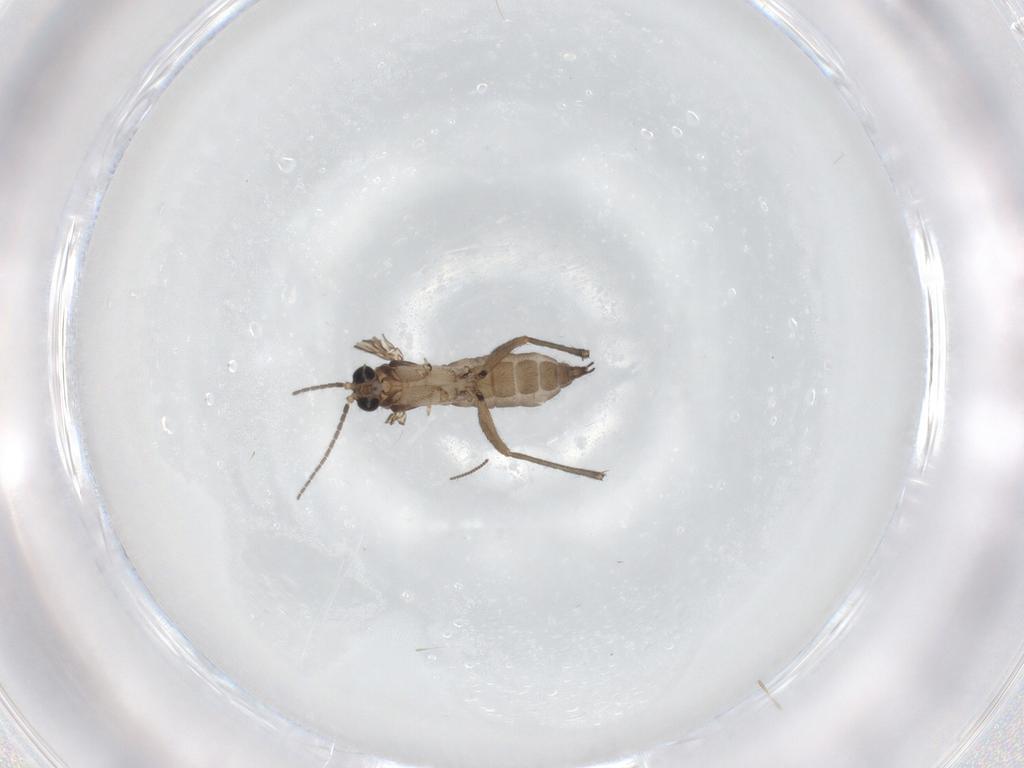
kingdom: Animalia
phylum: Arthropoda
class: Insecta
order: Diptera
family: Sciaridae
